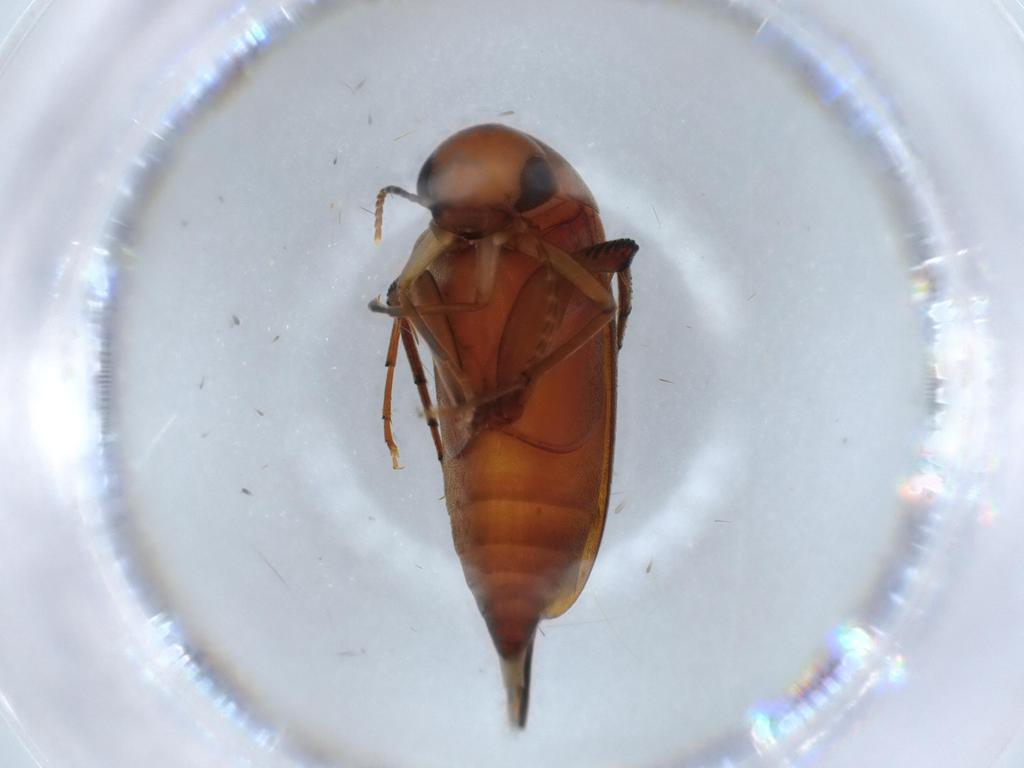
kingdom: Animalia
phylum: Arthropoda
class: Insecta
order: Coleoptera
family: Mordellidae
